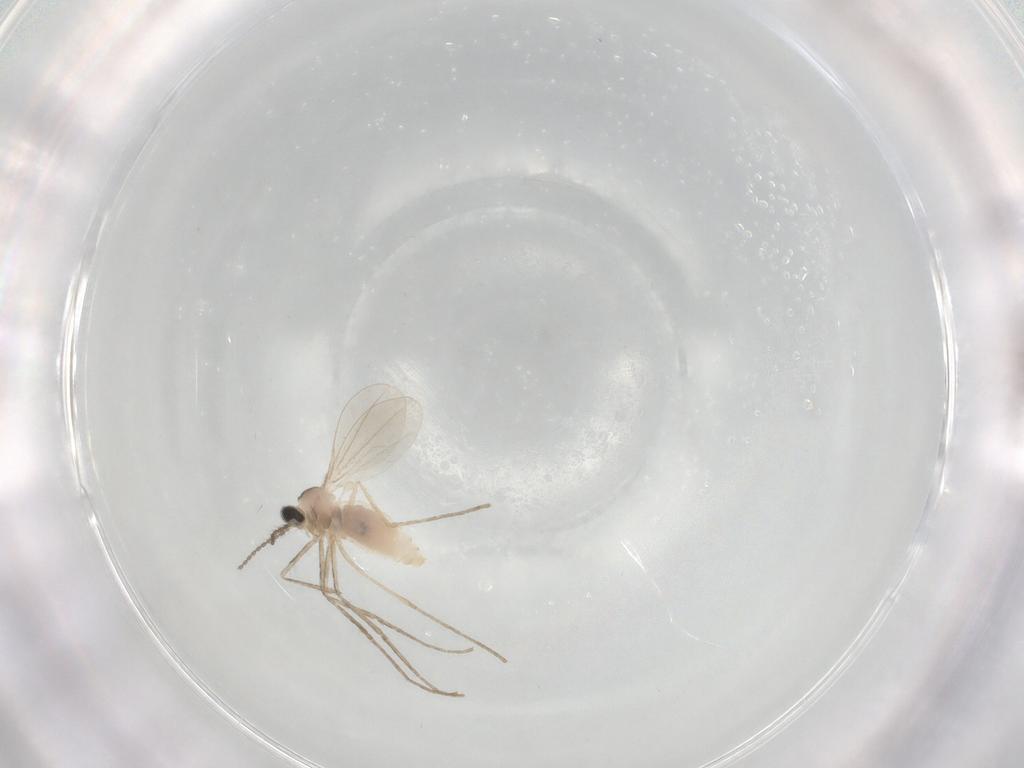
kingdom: Animalia
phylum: Arthropoda
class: Insecta
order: Diptera
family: Cecidomyiidae
